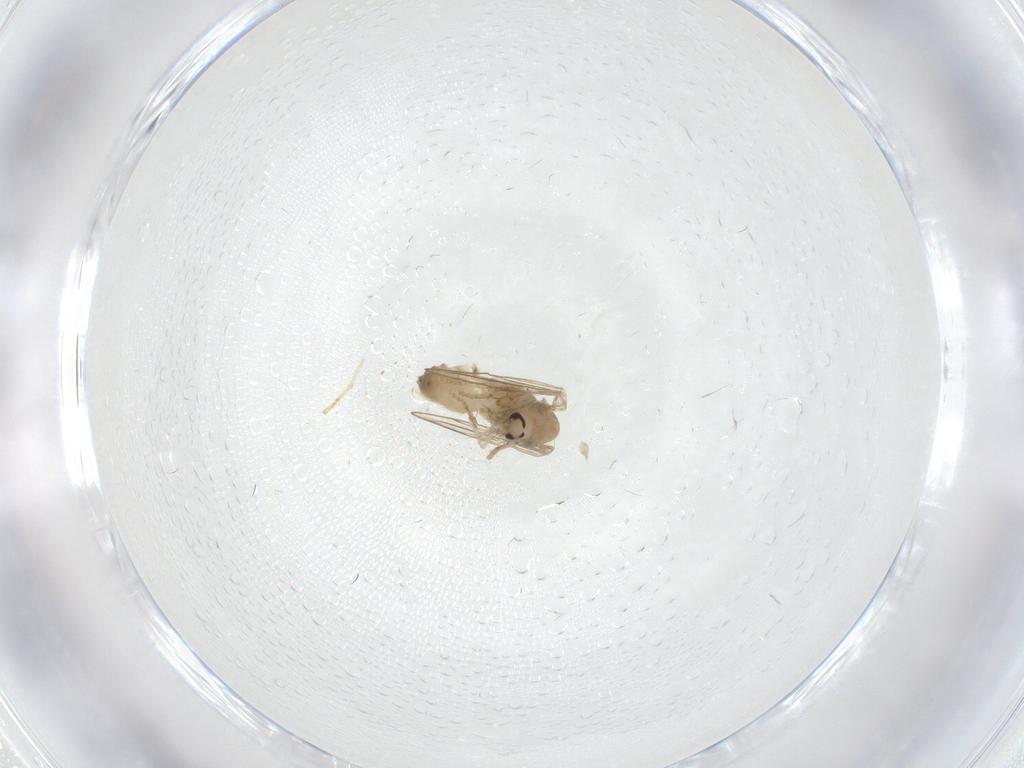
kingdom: Animalia
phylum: Arthropoda
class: Insecta
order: Diptera
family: Psychodidae
